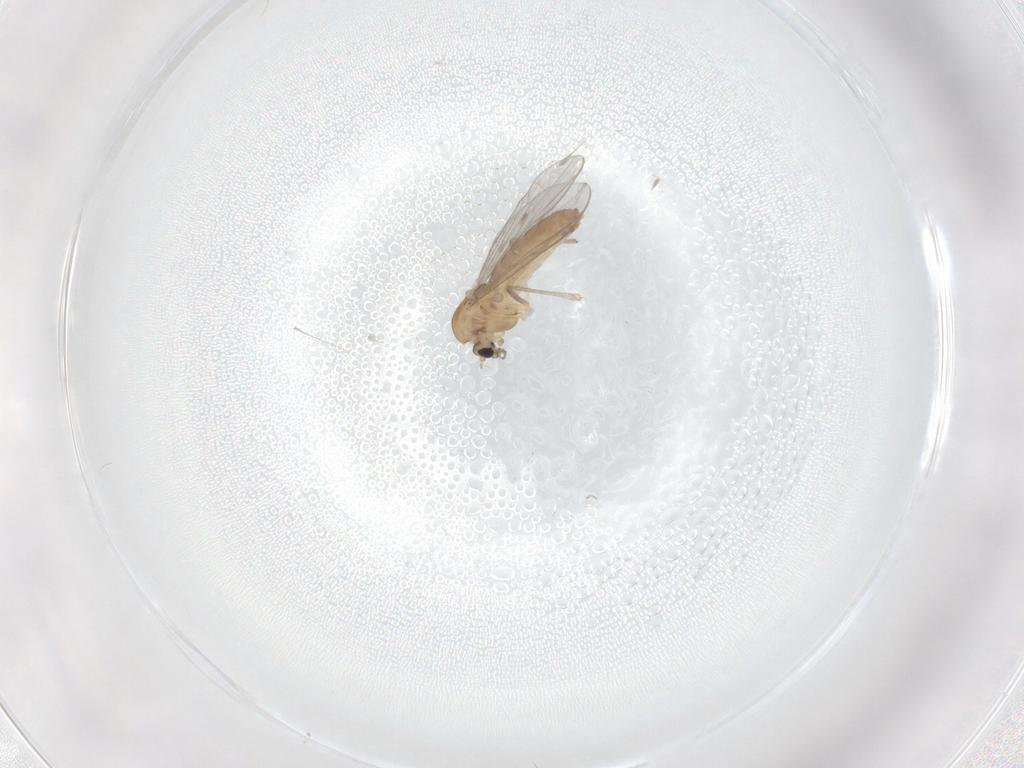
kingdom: Animalia
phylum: Arthropoda
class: Insecta
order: Diptera
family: Chironomidae
